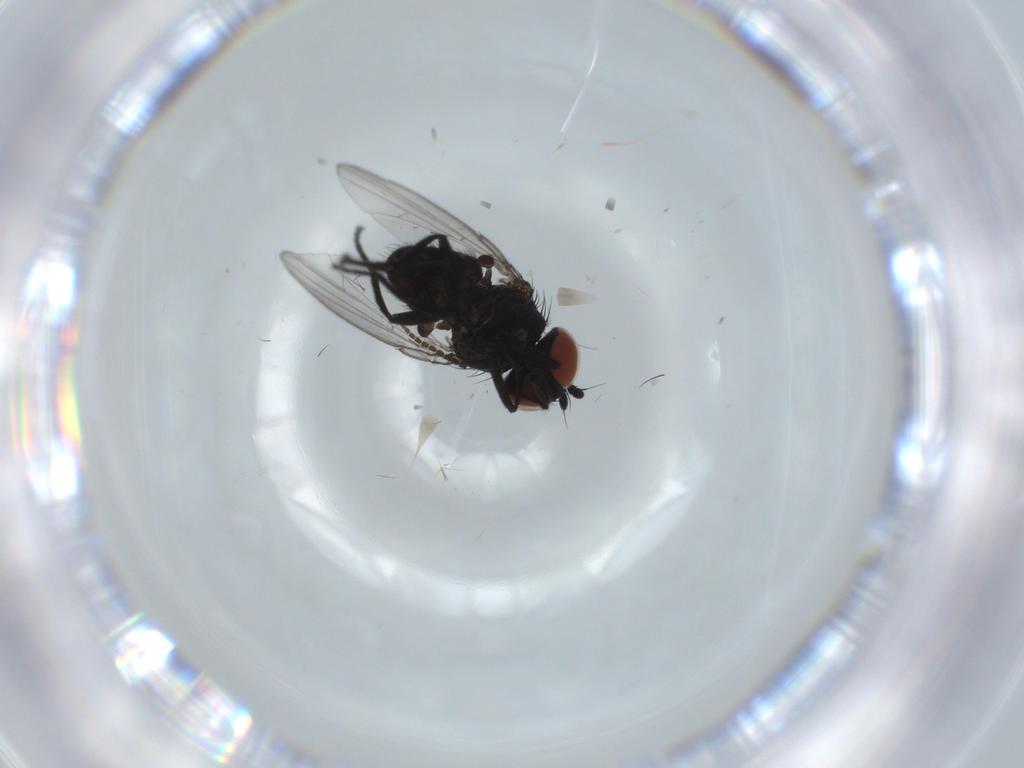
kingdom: Animalia
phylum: Arthropoda
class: Insecta
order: Diptera
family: Milichiidae
